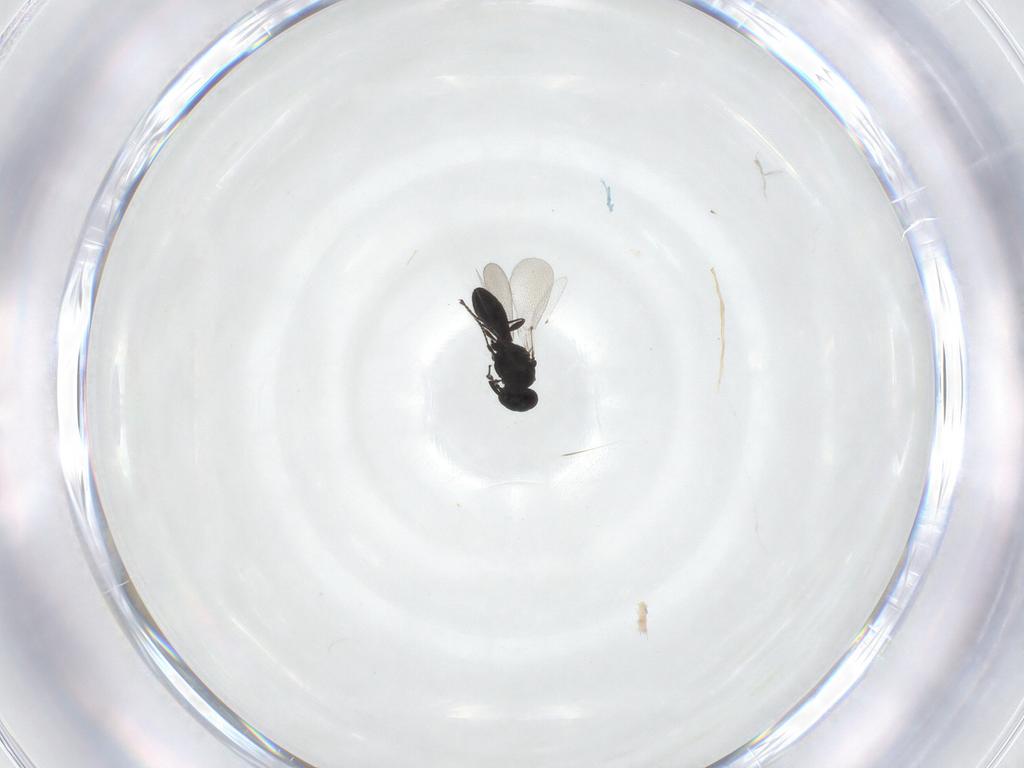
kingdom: Animalia
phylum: Arthropoda
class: Insecta
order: Hymenoptera
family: Platygastridae
